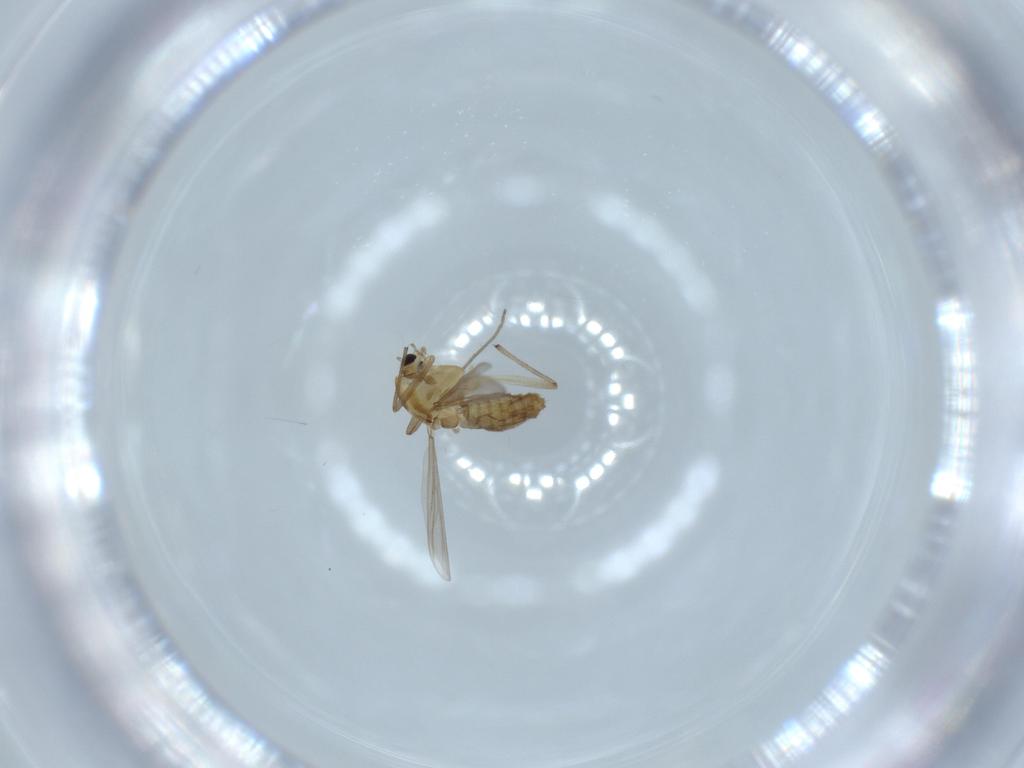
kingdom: Animalia
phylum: Arthropoda
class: Insecta
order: Diptera
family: Chironomidae
